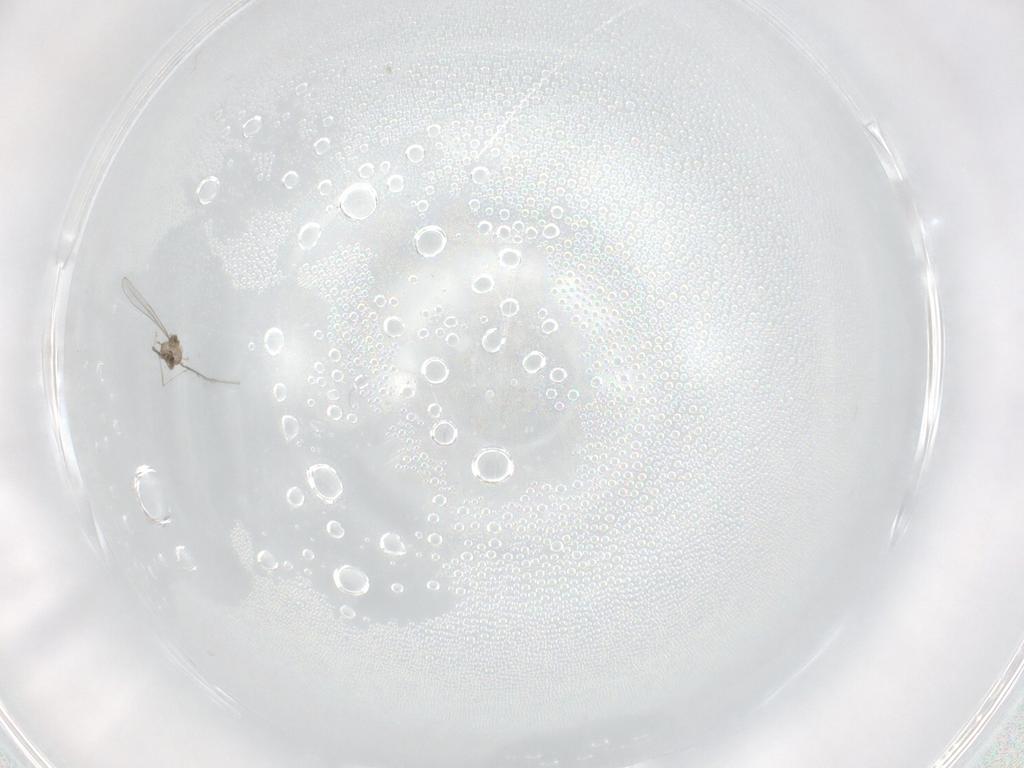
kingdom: Animalia
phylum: Arthropoda
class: Insecta
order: Diptera
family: Cecidomyiidae
